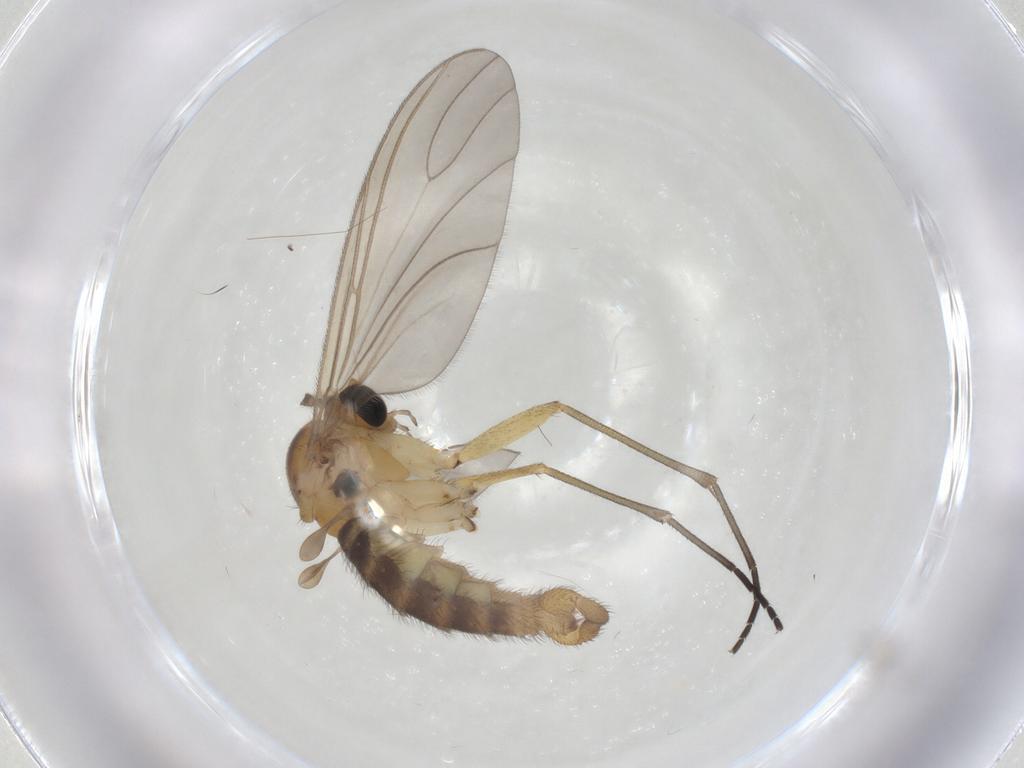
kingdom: Animalia
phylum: Arthropoda
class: Insecta
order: Diptera
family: Sciaridae
